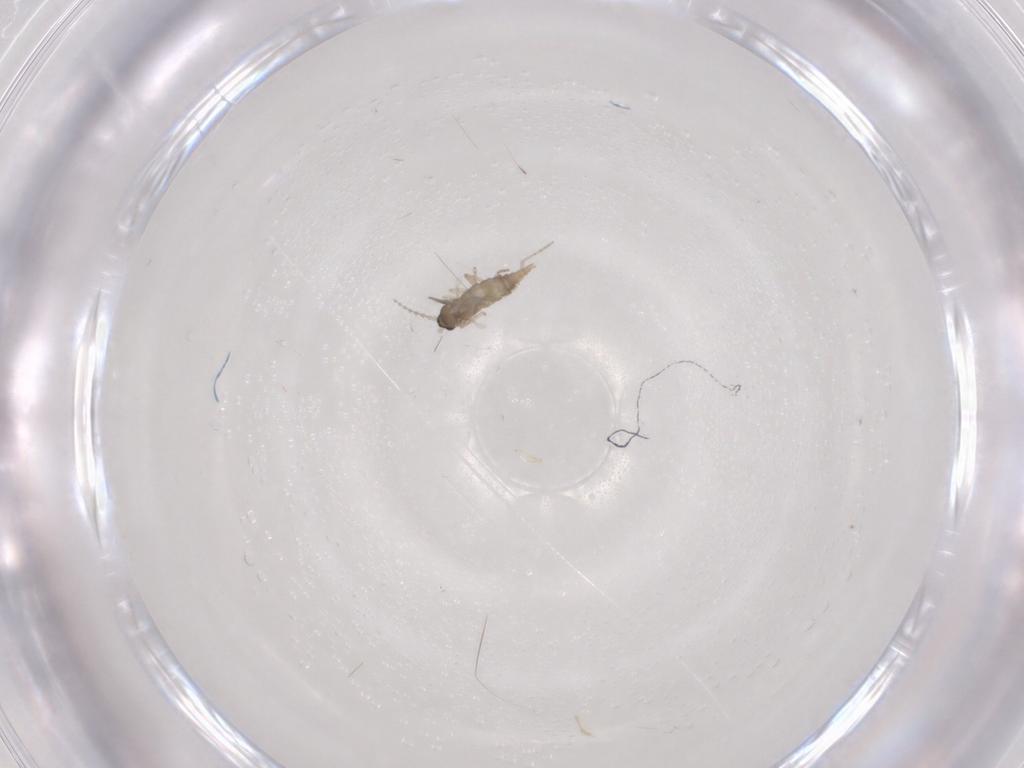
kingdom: Animalia
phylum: Arthropoda
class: Insecta
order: Diptera
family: Cecidomyiidae
